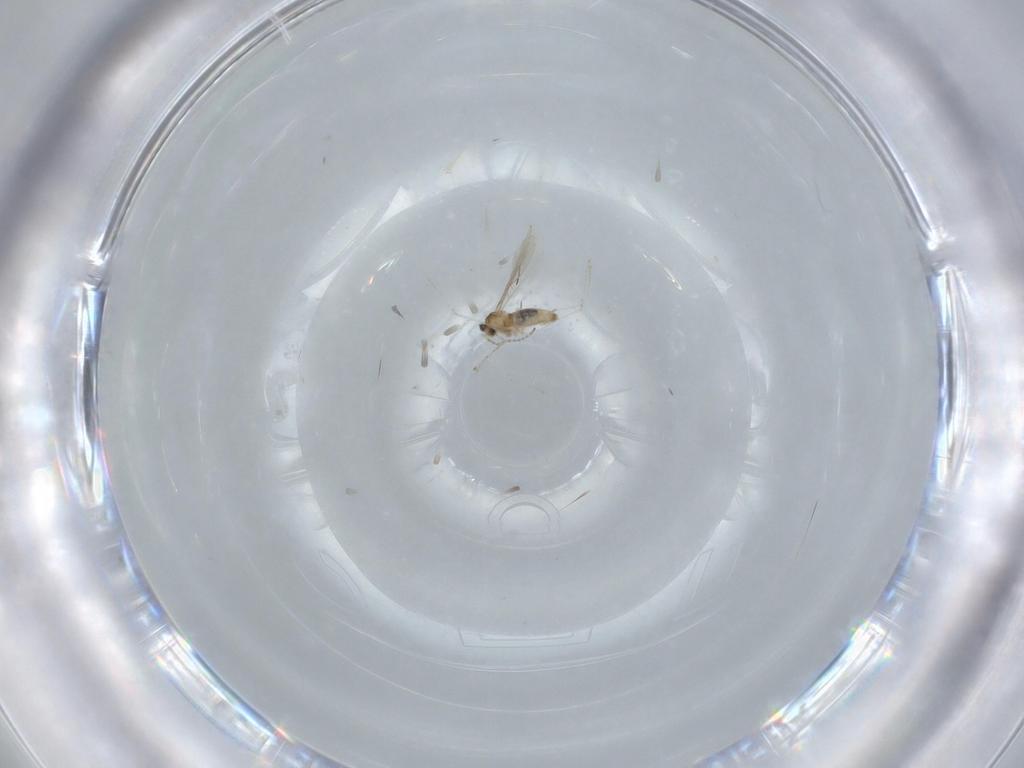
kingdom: Animalia
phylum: Arthropoda
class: Insecta
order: Diptera
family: Cecidomyiidae
